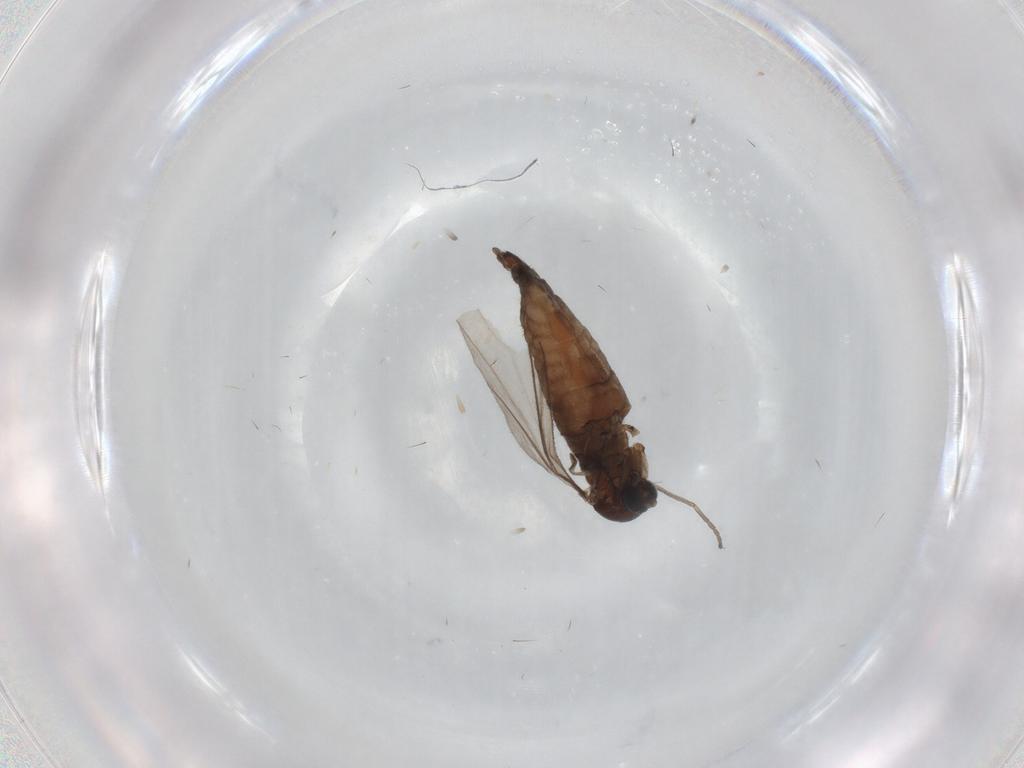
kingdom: Animalia
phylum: Arthropoda
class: Insecta
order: Diptera
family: Sciaridae
